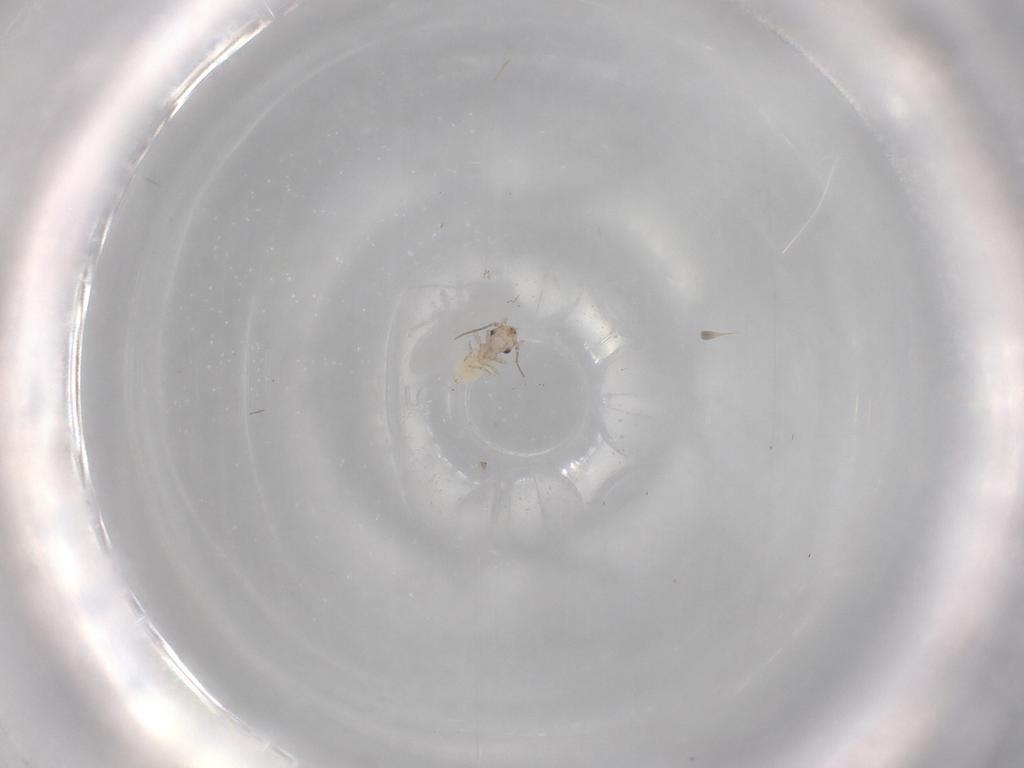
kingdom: Animalia
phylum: Arthropoda
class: Insecta
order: Psocodea
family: Lepidopsocidae
